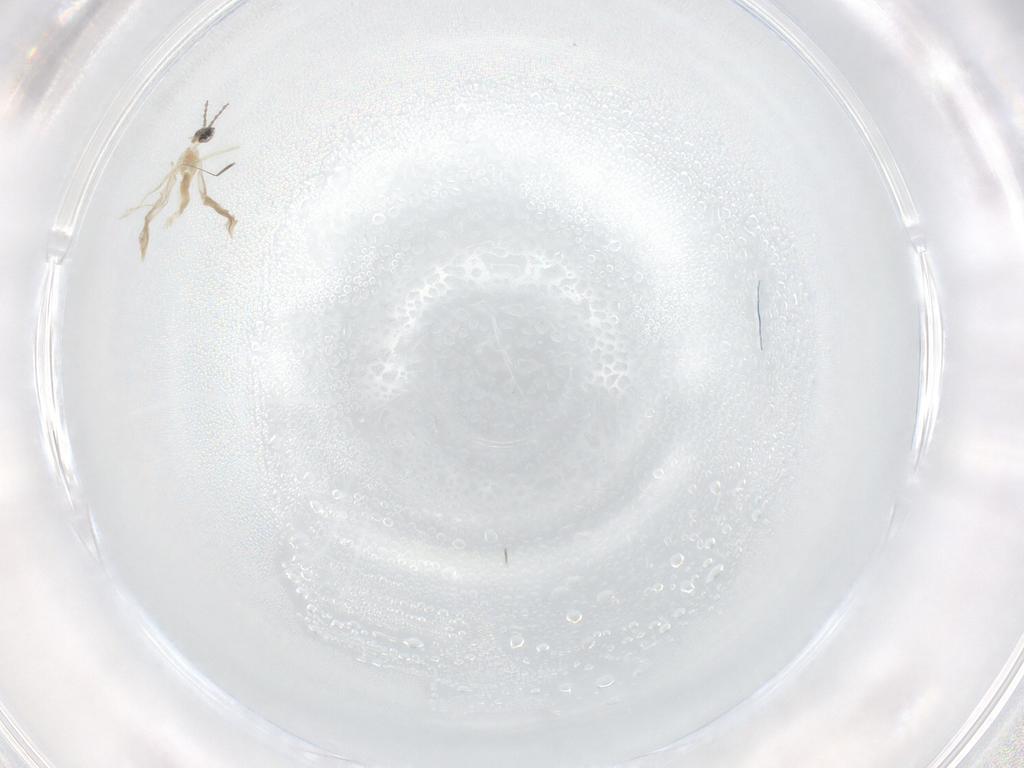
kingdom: Animalia
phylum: Arthropoda
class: Insecta
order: Diptera
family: Cecidomyiidae
